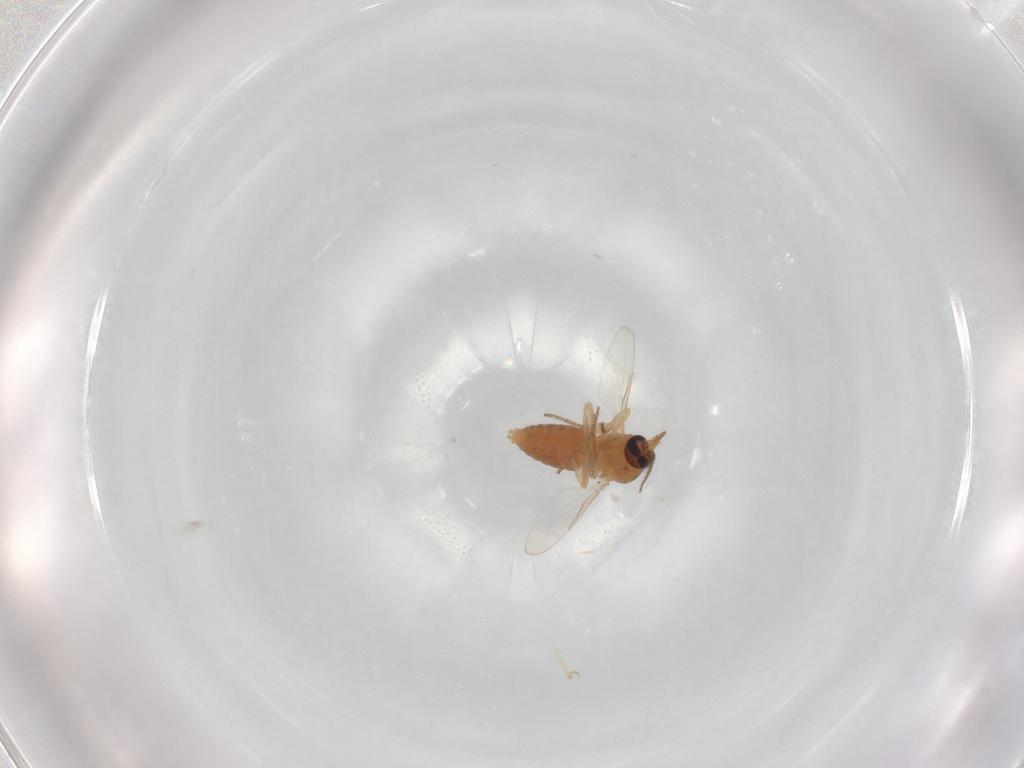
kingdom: Animalia
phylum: Arthropoda
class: Insecta
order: Diptera
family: Ceratopogonidae
